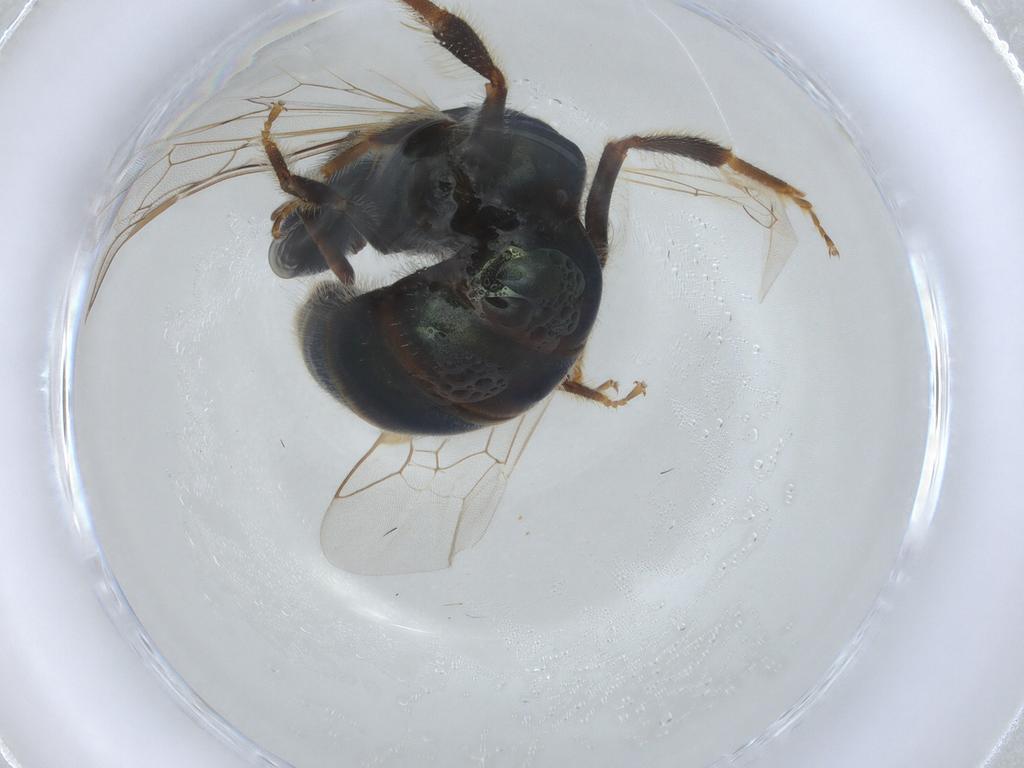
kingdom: Animalia
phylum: Arthropoda
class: Insecta
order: Hymenoptera
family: Halictidae
